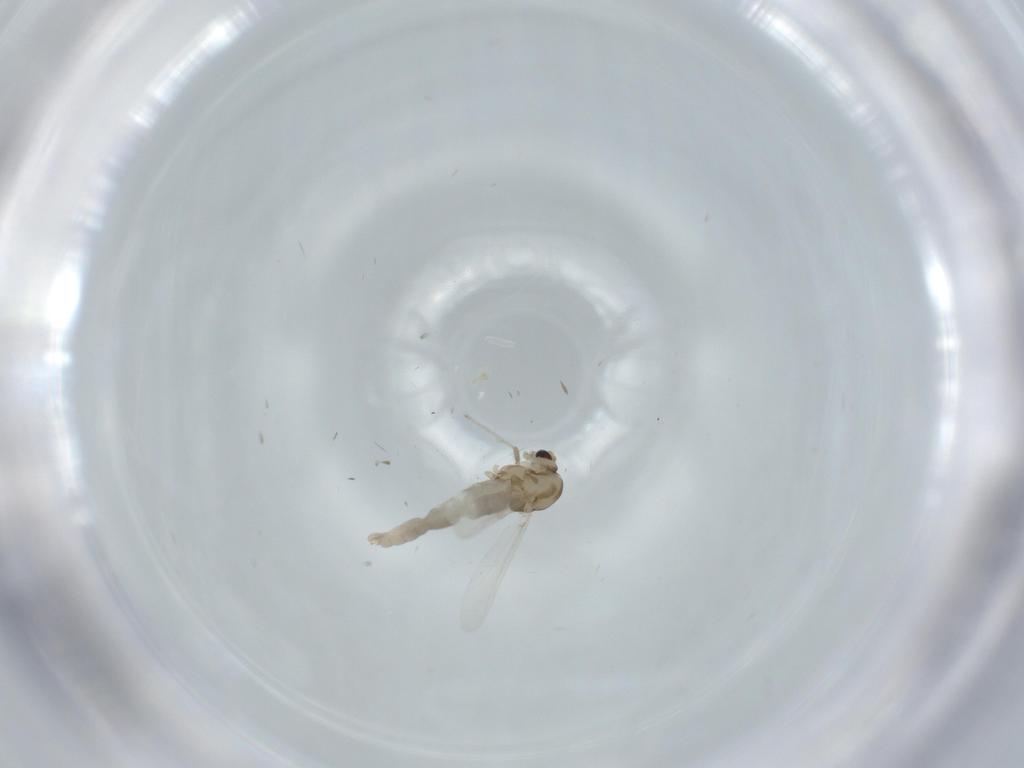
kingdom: Animalia
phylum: Arthropoda
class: Insecta
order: Diptera
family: Chironomidae
